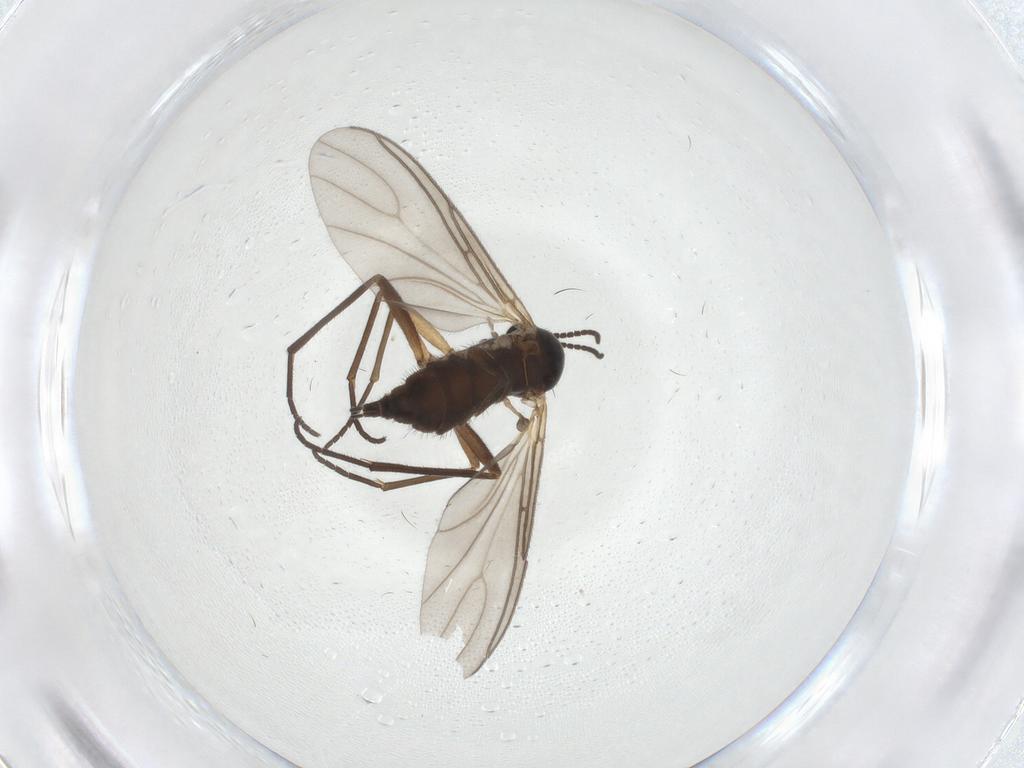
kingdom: Animalia
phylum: Arthropoda
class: Insecta
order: Diptera
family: Sciaridae
